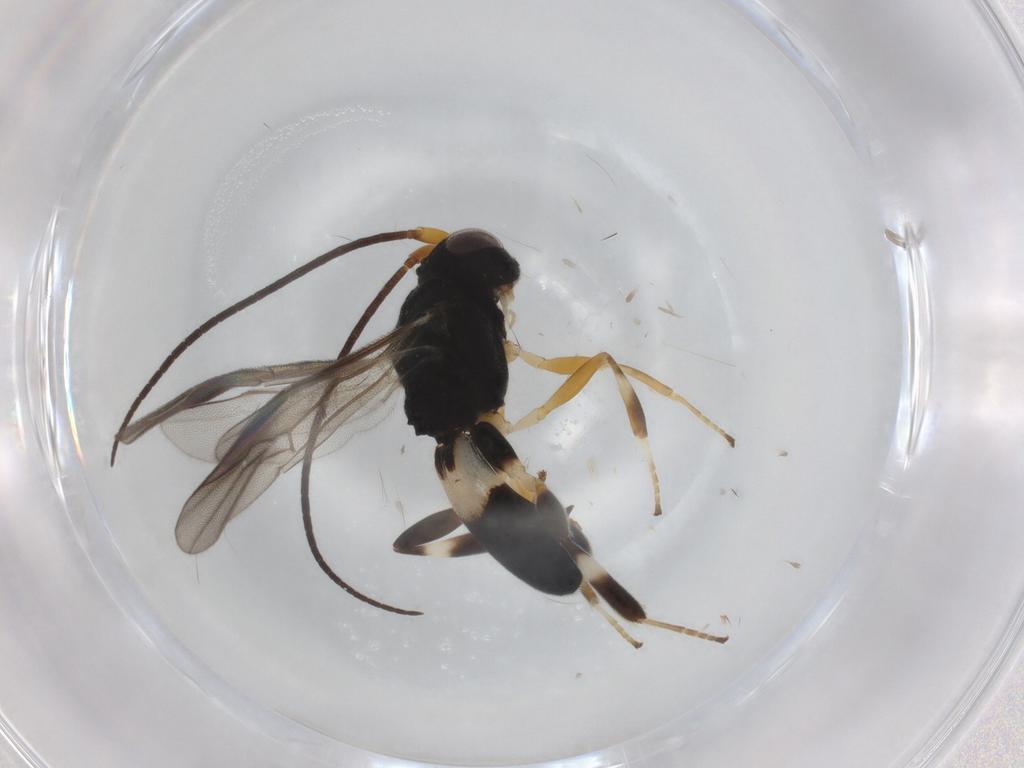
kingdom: Animalia
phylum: Arthropoda
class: Insecta
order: Hymenoptera
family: Braconidae
